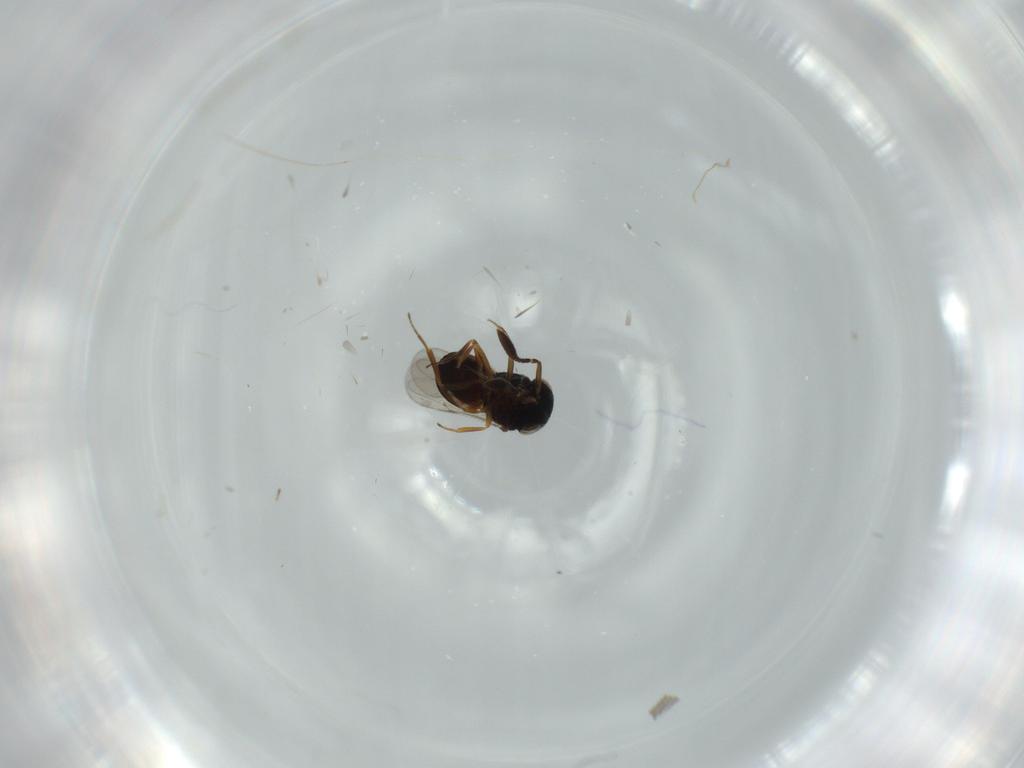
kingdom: Animalia
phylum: Arthropoda
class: Insecta
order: Hymenoptera
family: Scelionidae
